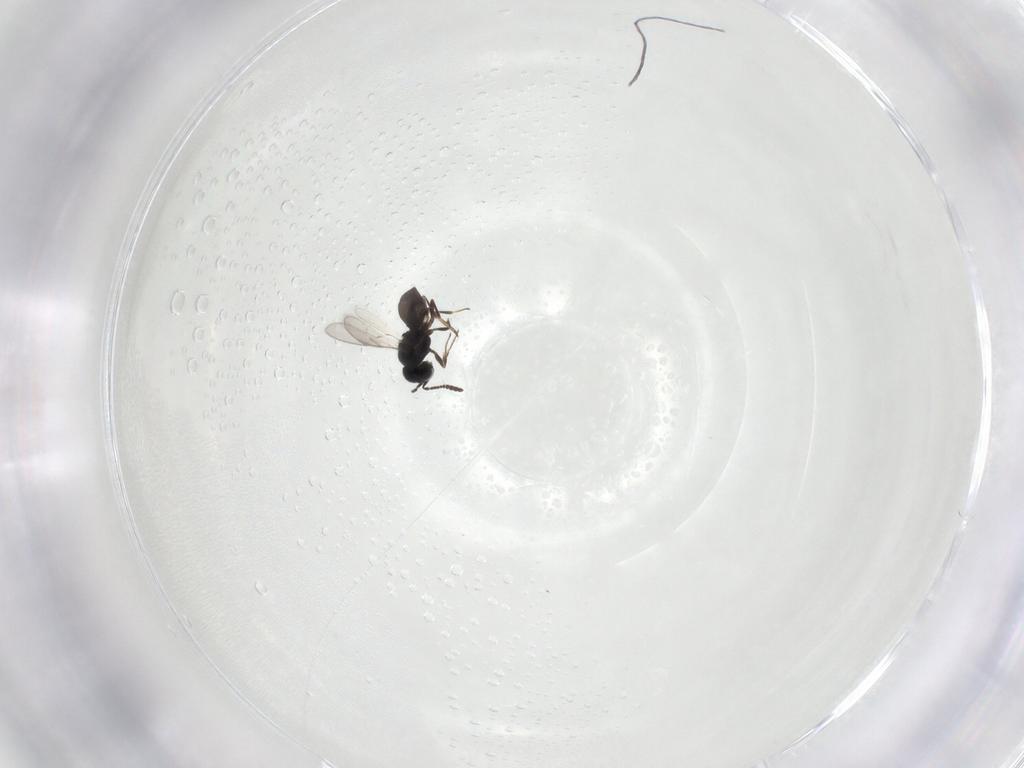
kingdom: Animalia
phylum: Arthropoda
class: Insecta
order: Hymenoptera
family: Scelionidae
